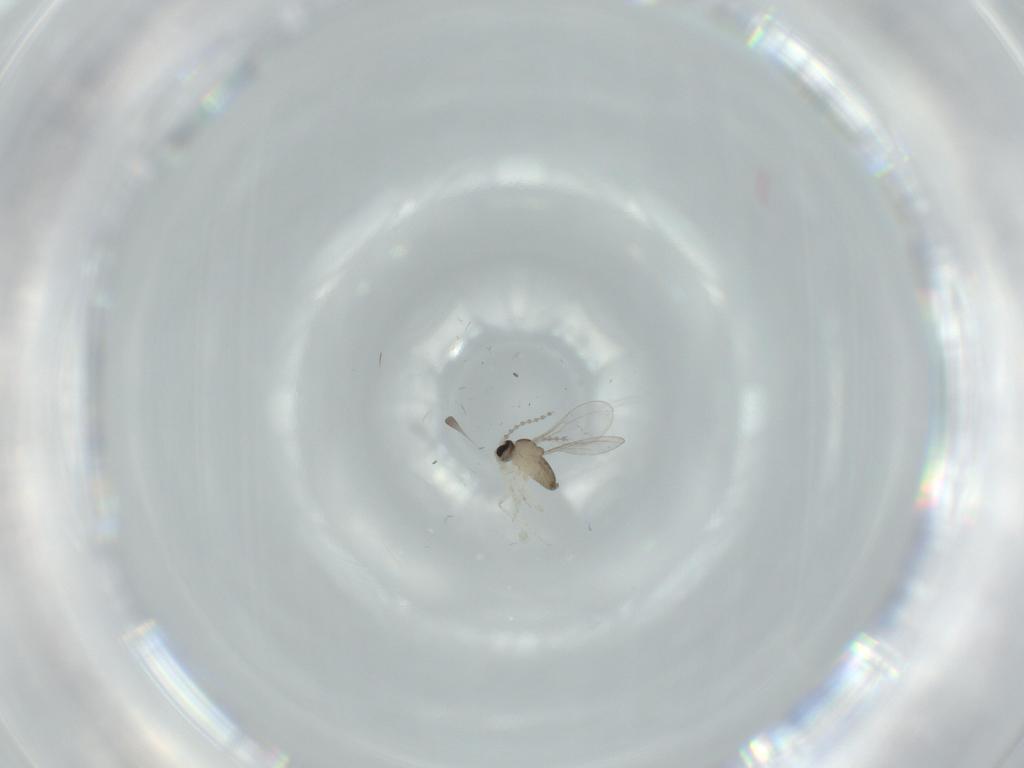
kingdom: Animalia
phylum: Arthropoda
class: Insecta
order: Diptera
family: Cecidomyiidae
